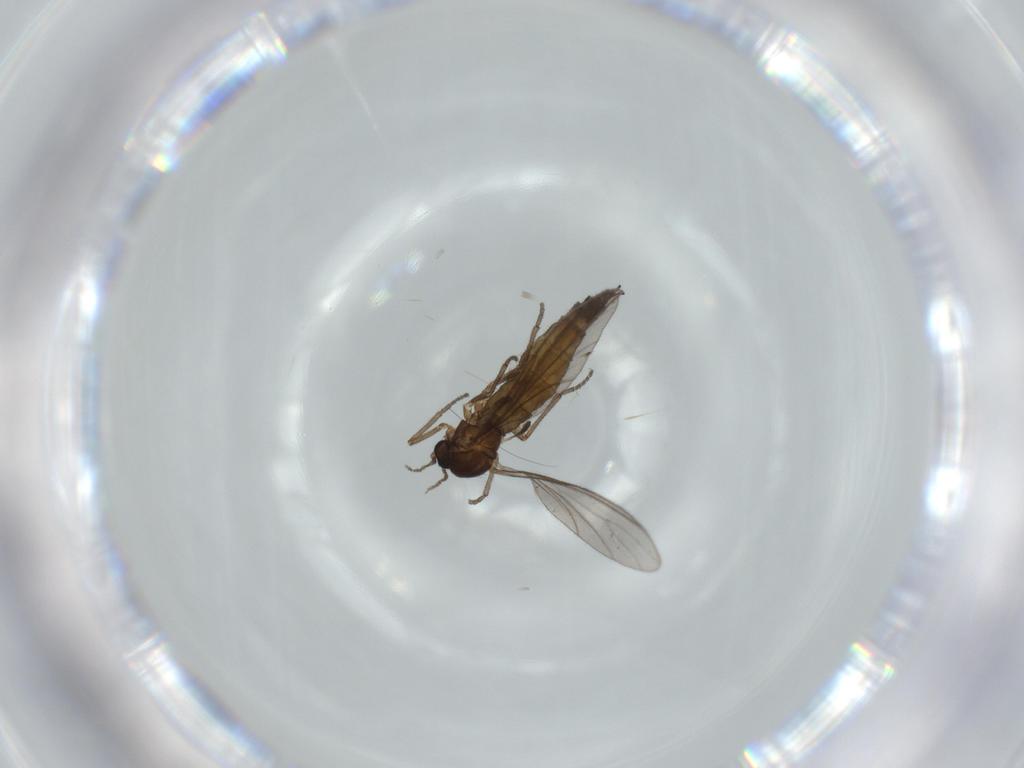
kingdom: Animalia
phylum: Arthropoda
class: Insecta
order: Diptera
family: Sciaridae
